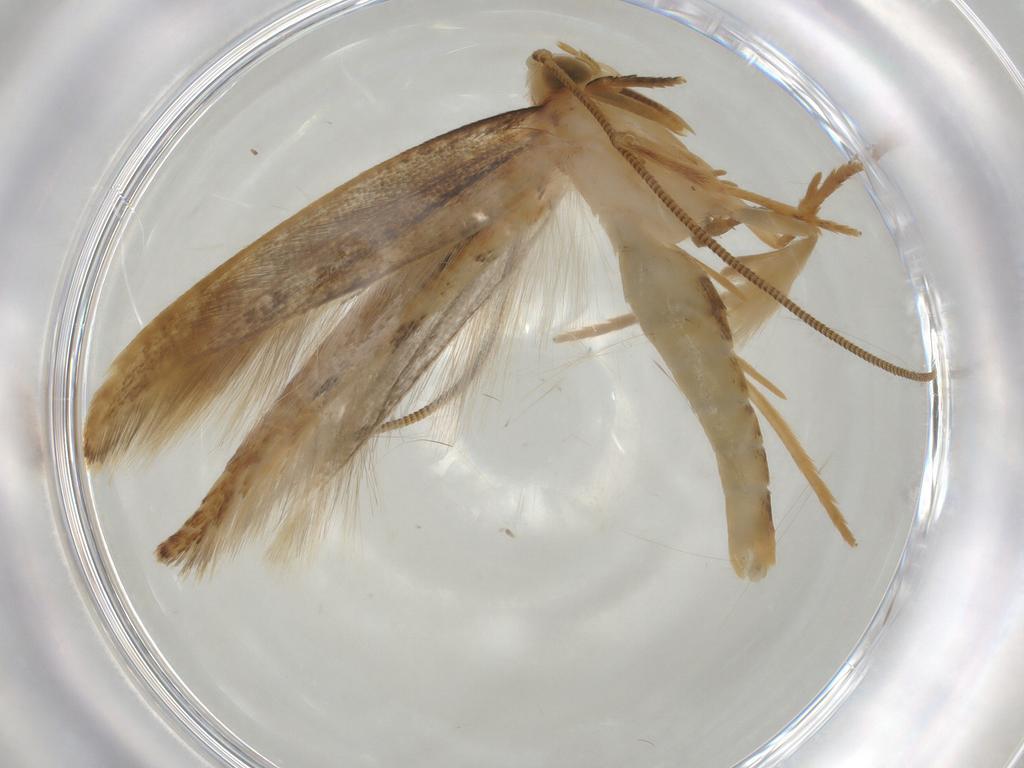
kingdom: Animalia
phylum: Arthropoda
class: Insecta
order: Lepidoptera
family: Tineidae
